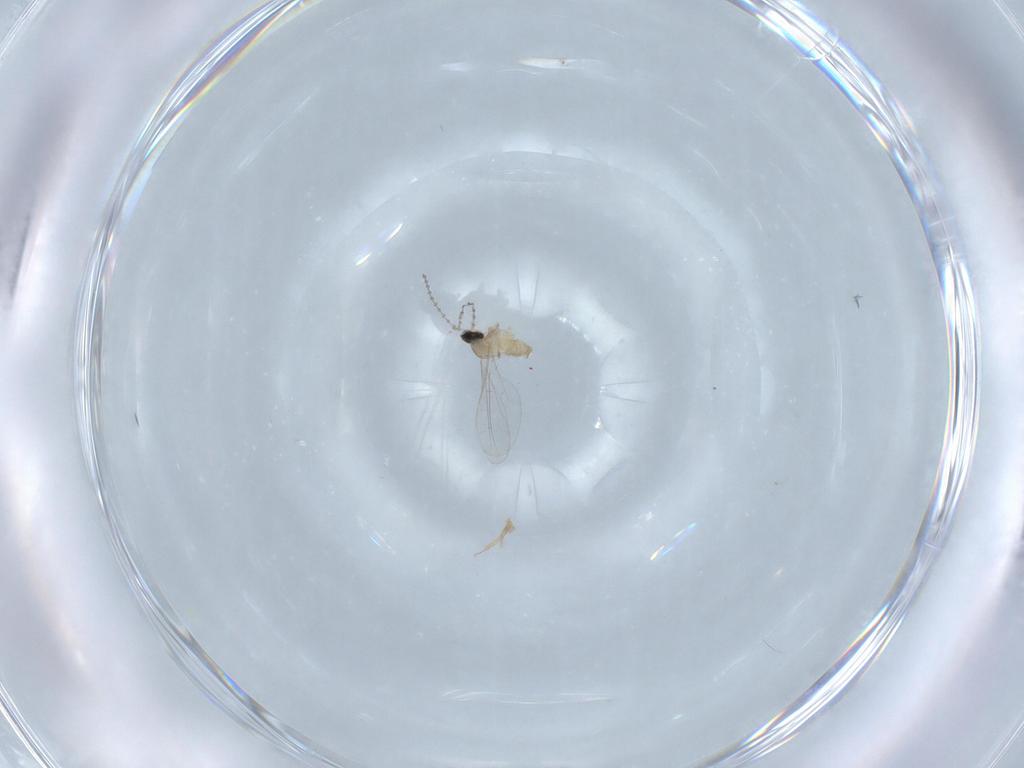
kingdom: Animalia
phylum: Arthropoda
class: Insecta
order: Diptera
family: Cecidomyiidae
